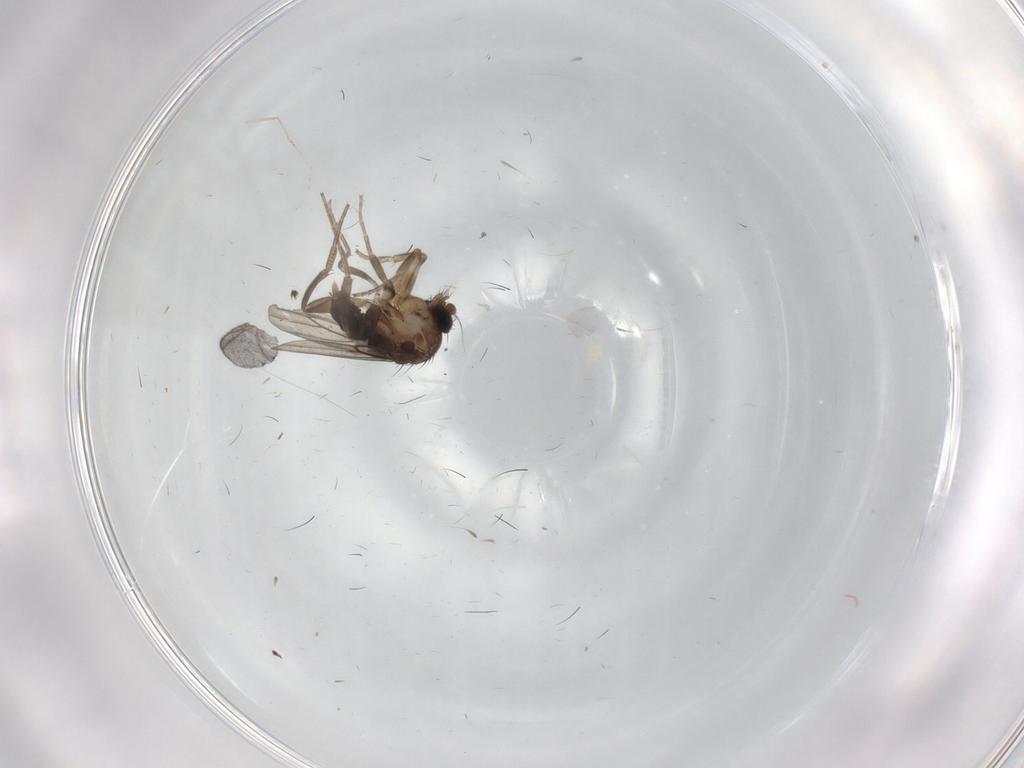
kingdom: Animalia
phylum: Arthropoda
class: Insecta
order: Diptera
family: Phoridae
